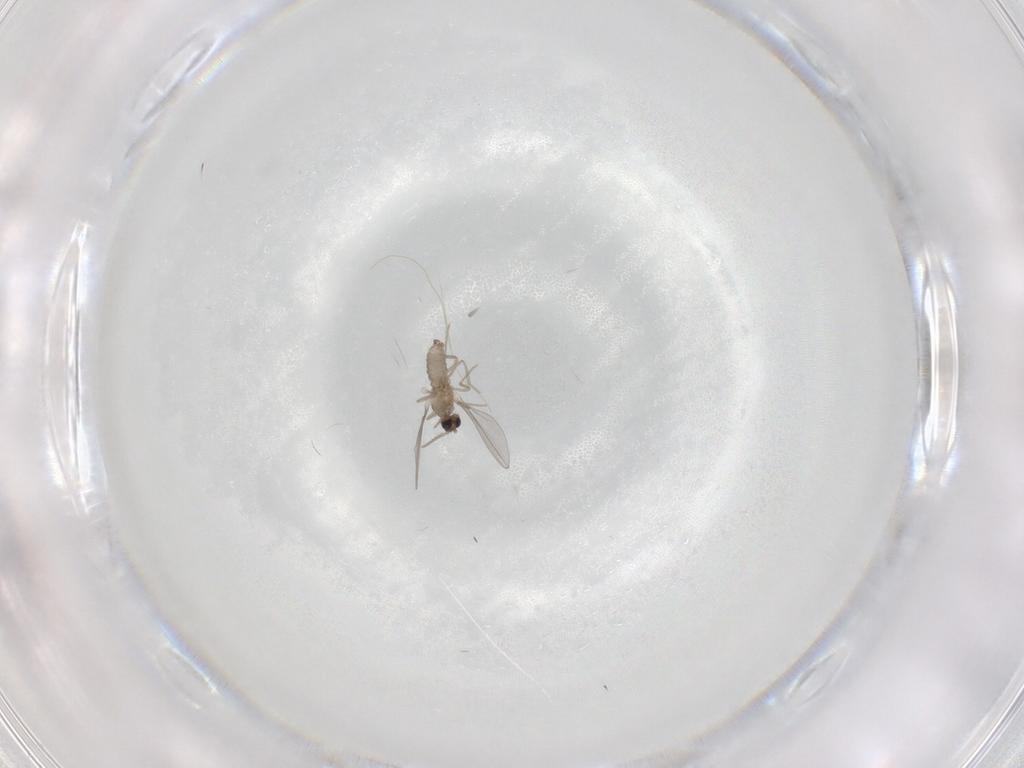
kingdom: Animalia
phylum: Arthropoda
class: Insecta
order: Diptera
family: Cecidomyiidae
